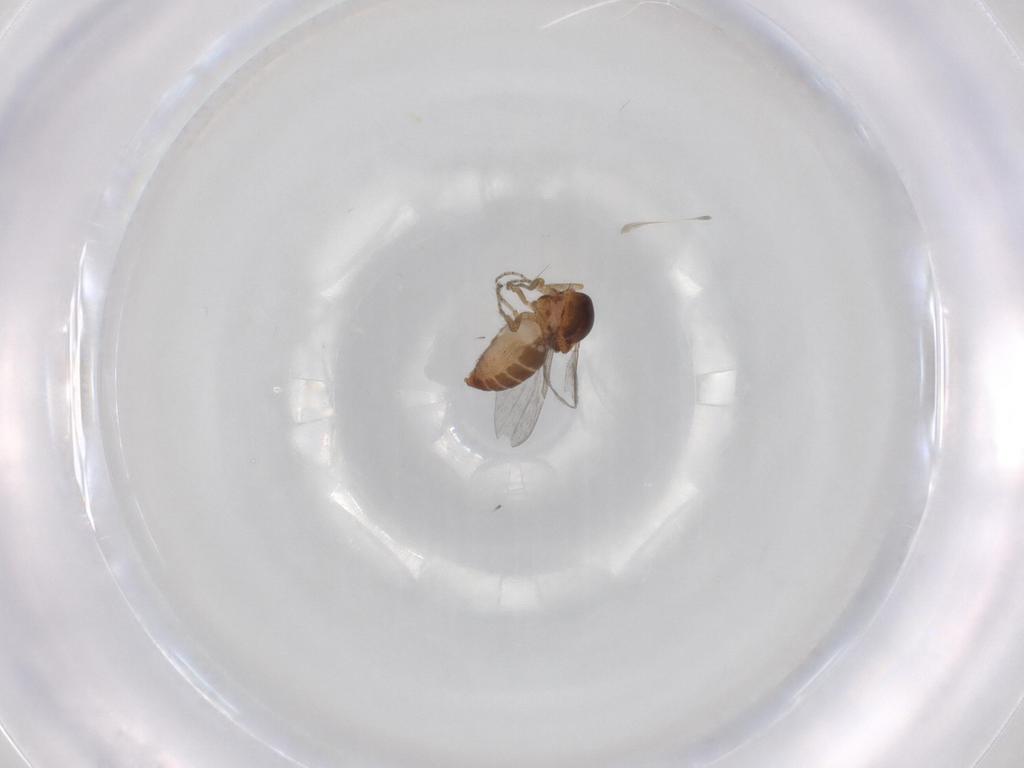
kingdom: Animalia
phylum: Arthropoda
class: Insecta
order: Diptera
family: Ceratopogonidae
